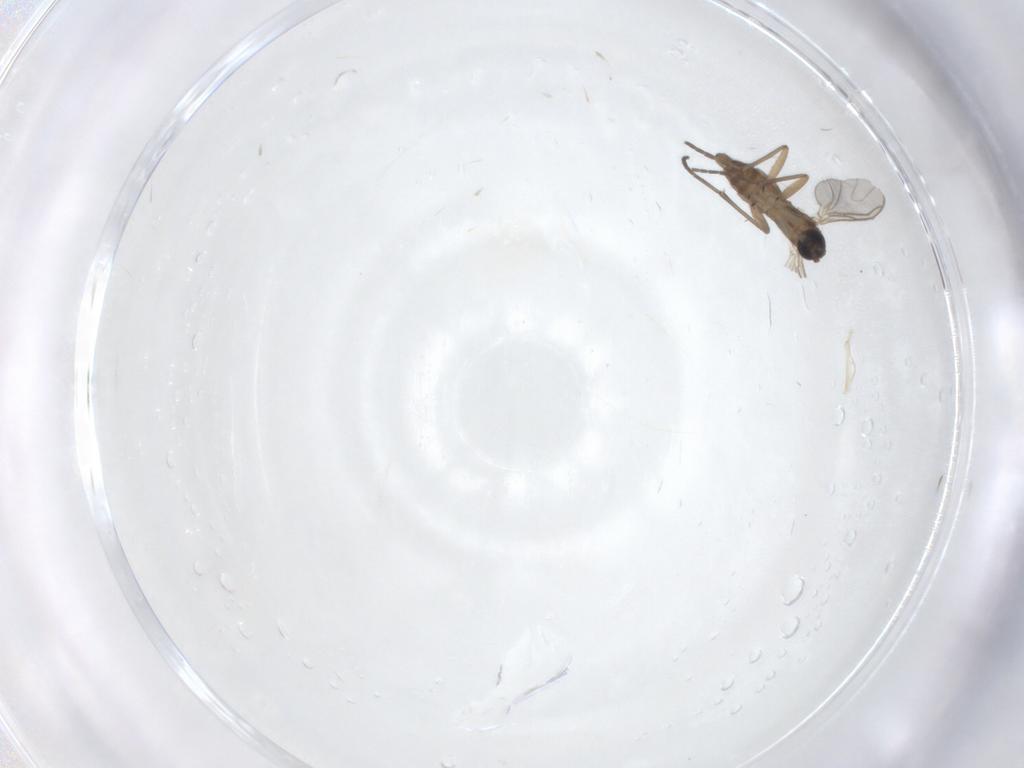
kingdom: Animalia
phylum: Arthropoda
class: Insecta
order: Diptera
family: Sciaridae
